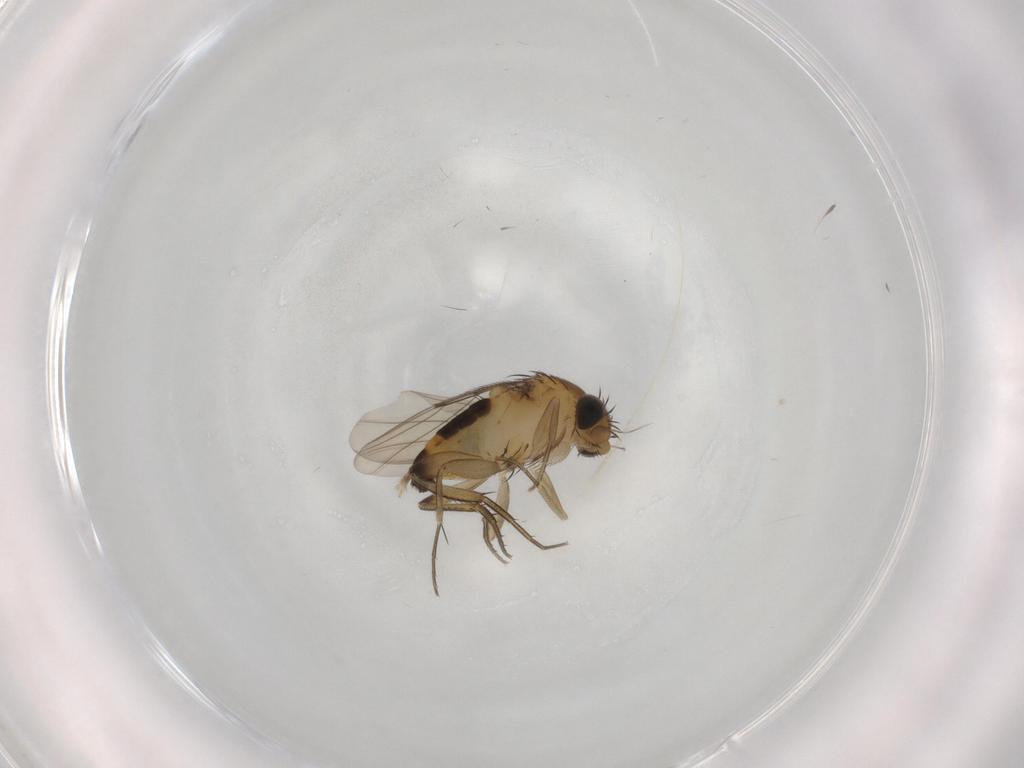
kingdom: Animalia
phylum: Arthropoda
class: Insecta
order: Diptera
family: Phoridae
